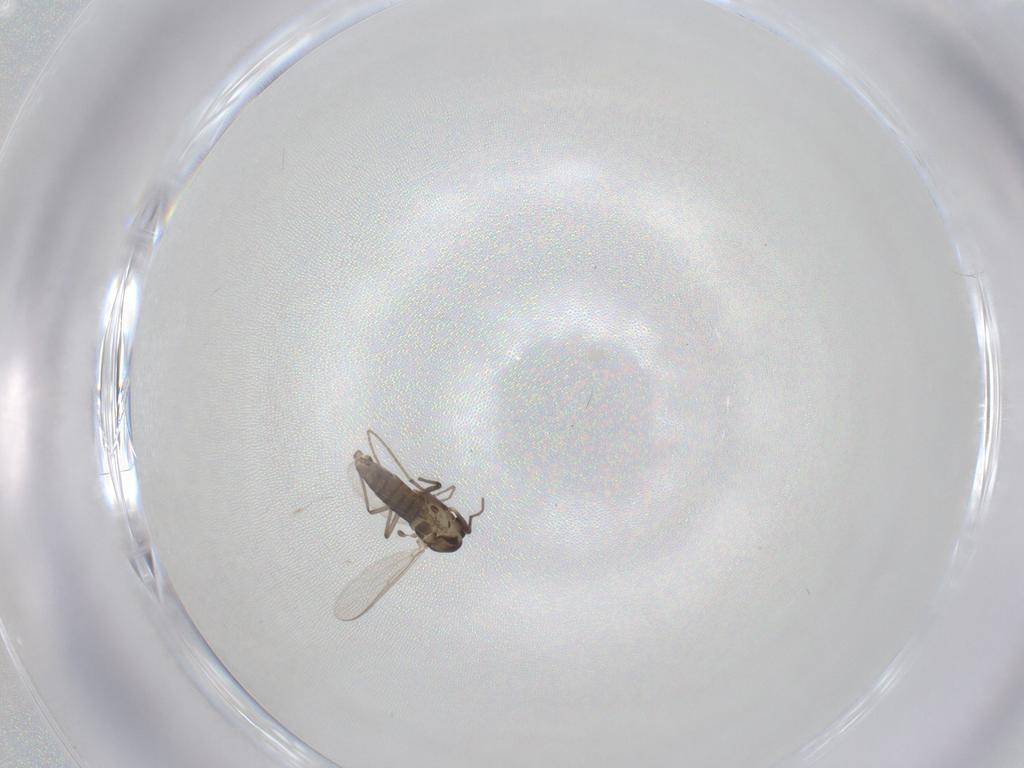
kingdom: Animalia
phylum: Arthropoda
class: Insecta
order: Diptera
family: Chironomidae
